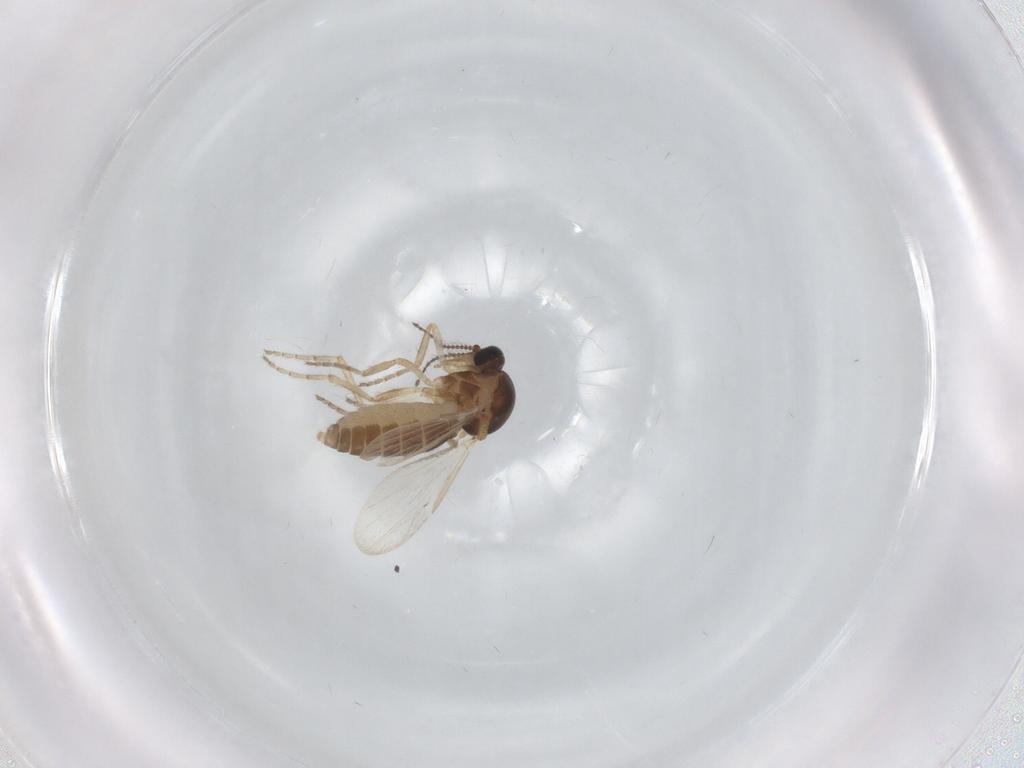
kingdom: Animalia
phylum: Arthropoda
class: Insecta
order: Diptera
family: Ceratopogonidae
